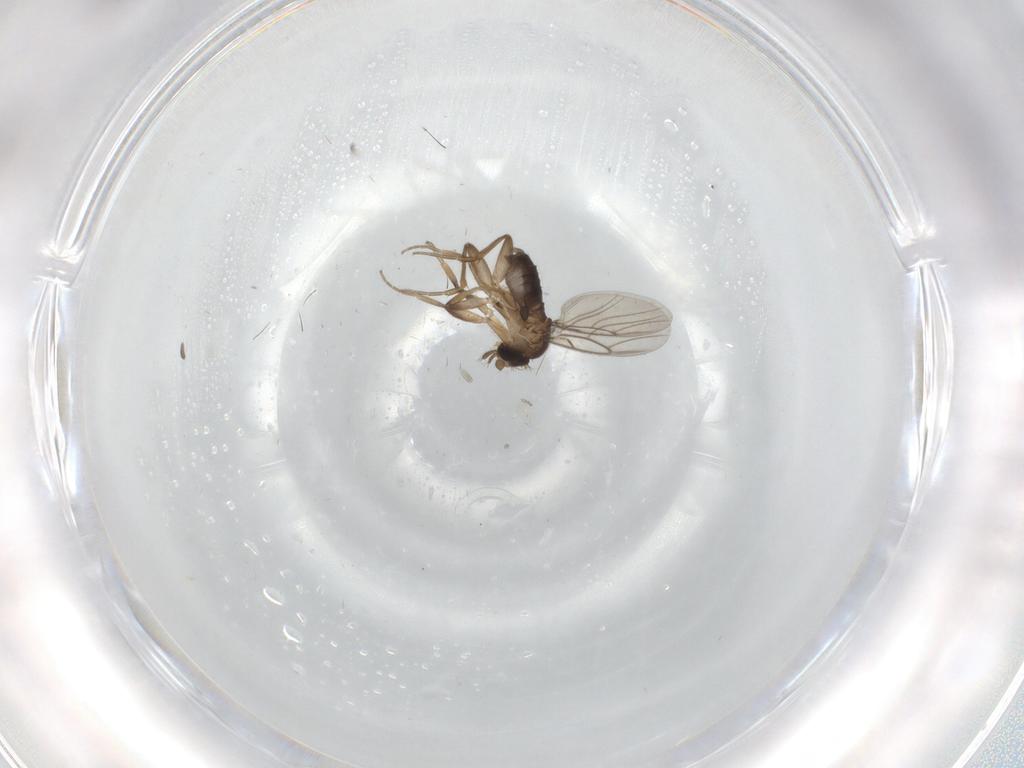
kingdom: Animalia
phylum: Arthropoda
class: Insecta
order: Diptera
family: Cecidomyiidae
